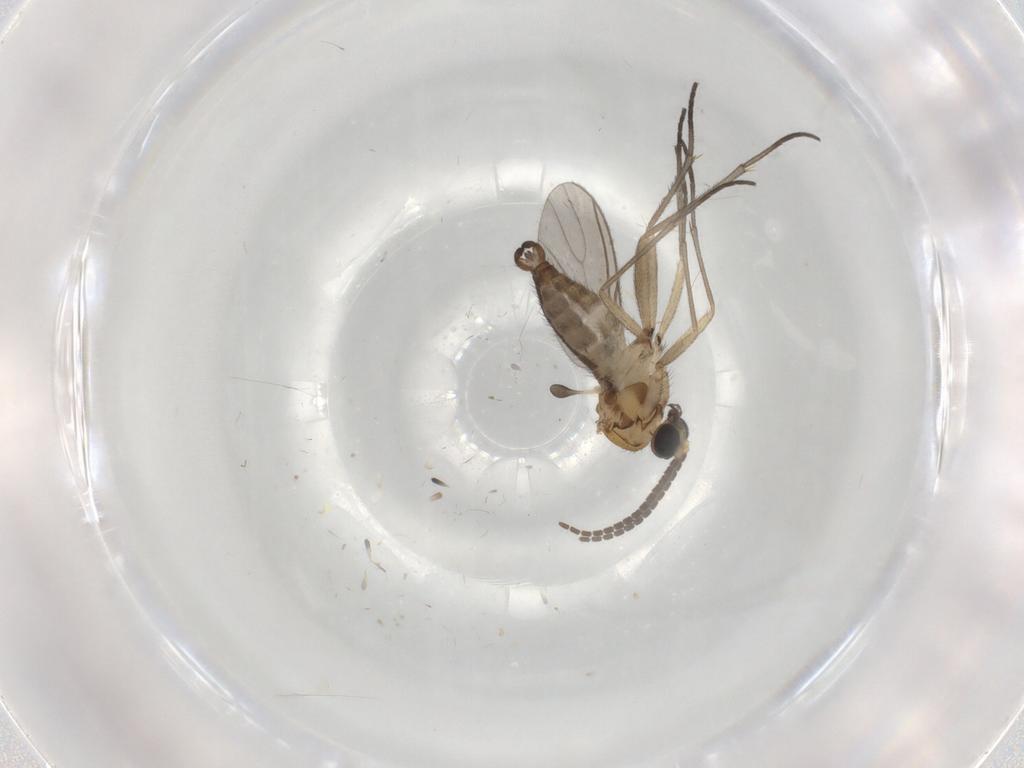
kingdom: Animalia
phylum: Arthropoda
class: Insecta
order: Diptera
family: Sciaridae
